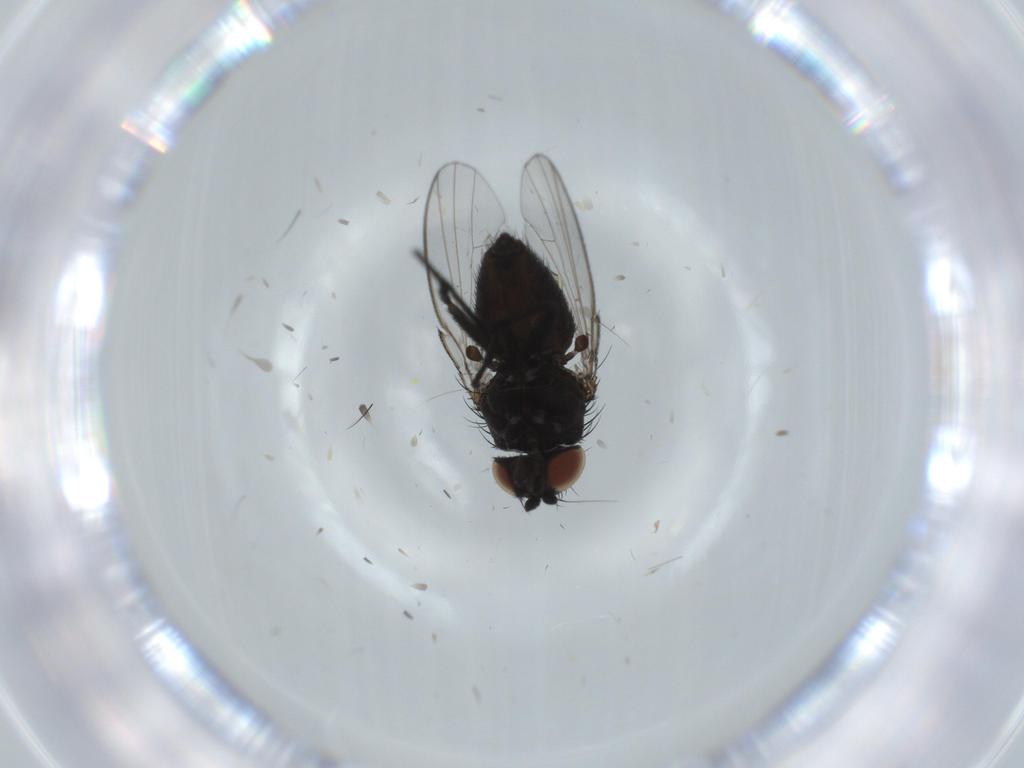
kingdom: Animalia
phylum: Arthropoda
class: Insecta
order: Diptera
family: Milichiidae
